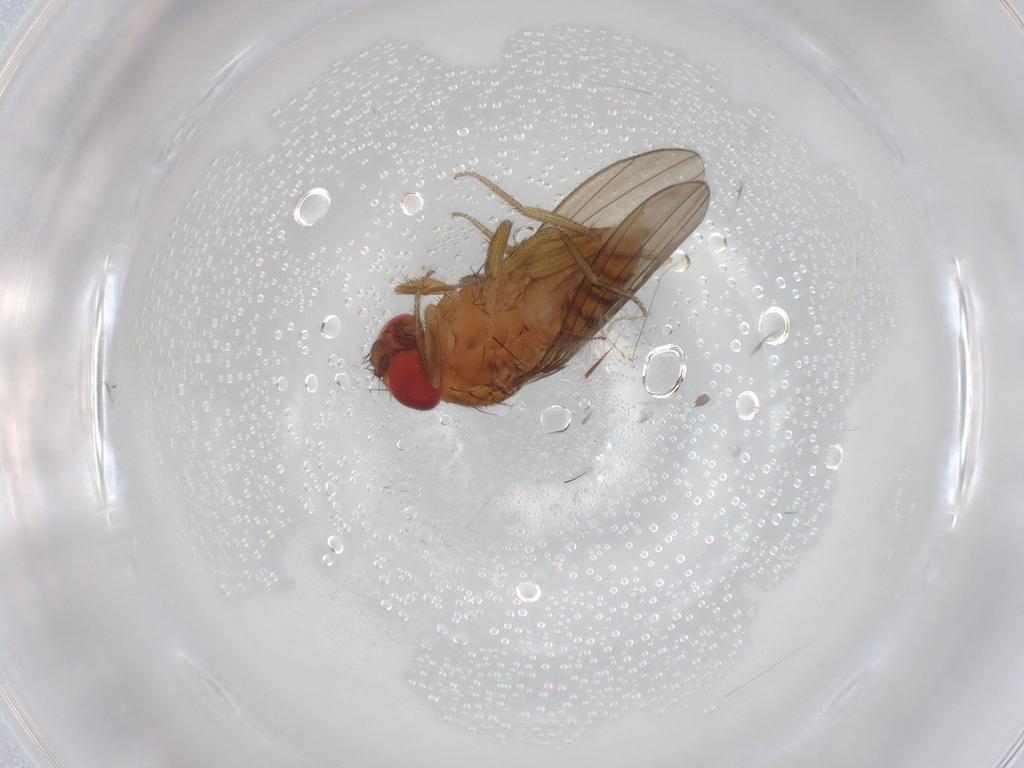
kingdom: Animalia
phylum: Arthropoda
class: Insecta
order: Diptera
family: Drosophilidae
